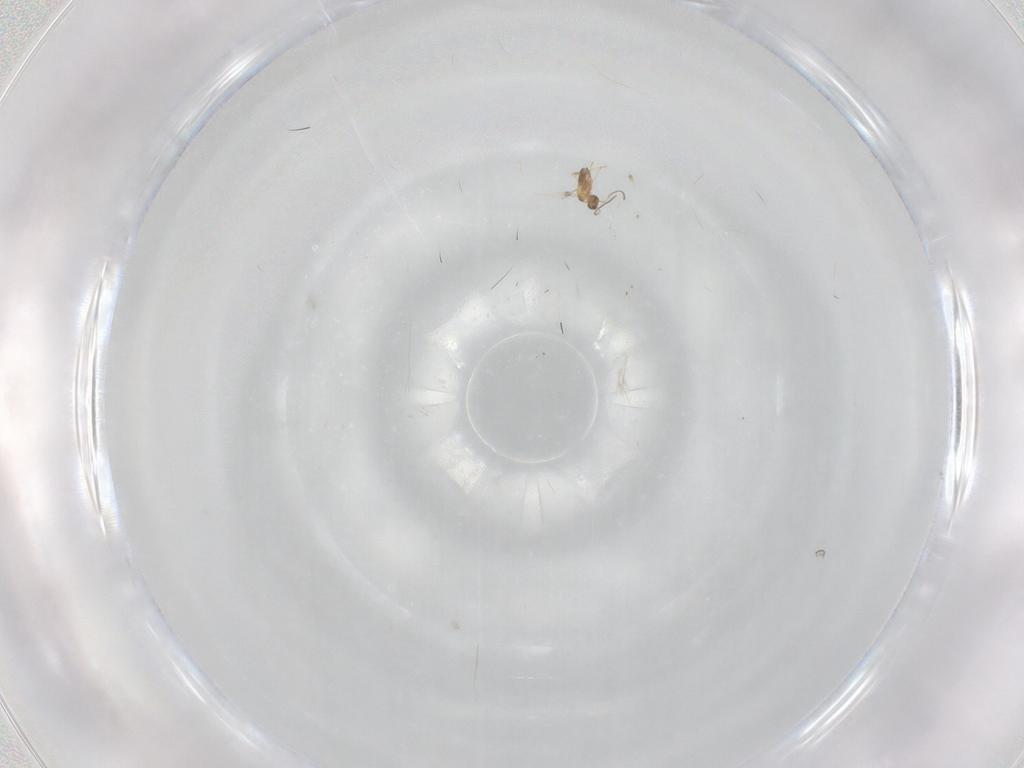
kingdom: Animalia
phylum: Arthropoda
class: Insecta
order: Hymenoptera
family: Mymaridae
